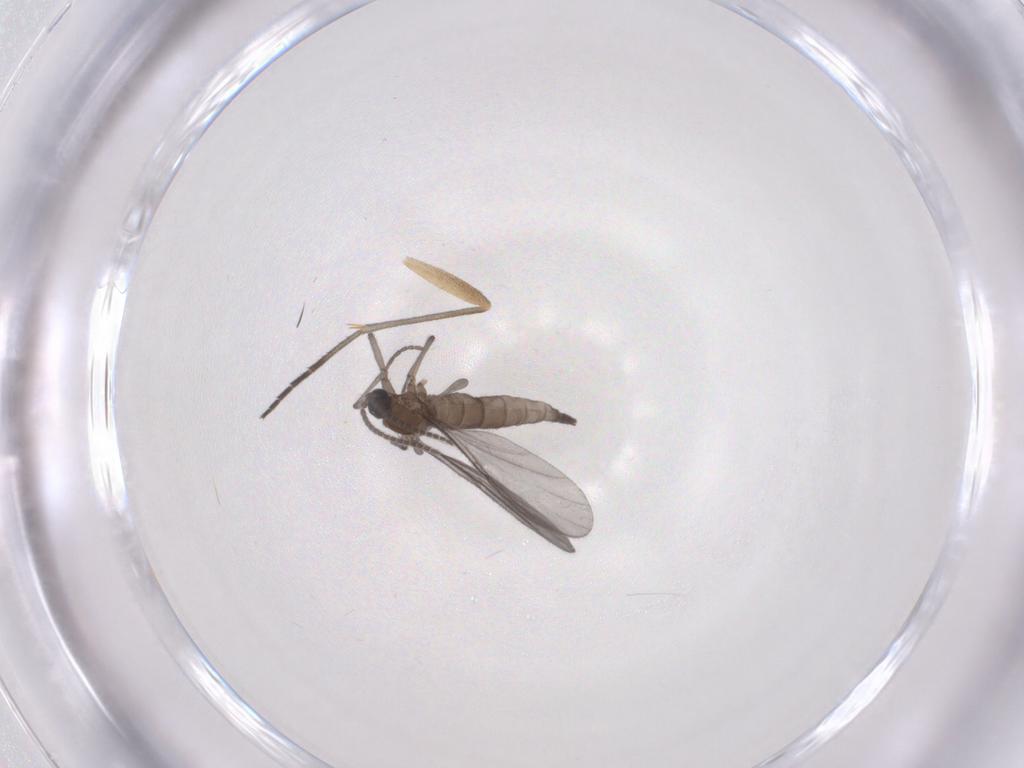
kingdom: Animalia
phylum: Arthropoda
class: Insecta
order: Diptera
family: Sciaridae
